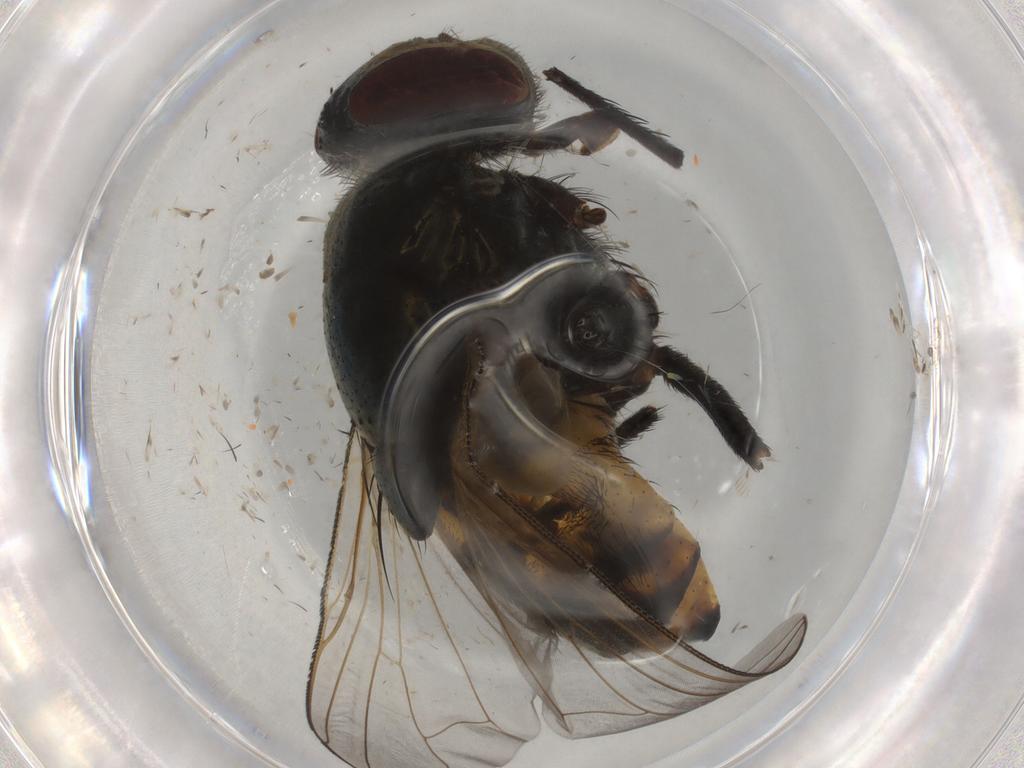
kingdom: Animalia
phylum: Arthropoda
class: Insecta
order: Diptera
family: Muscidae
